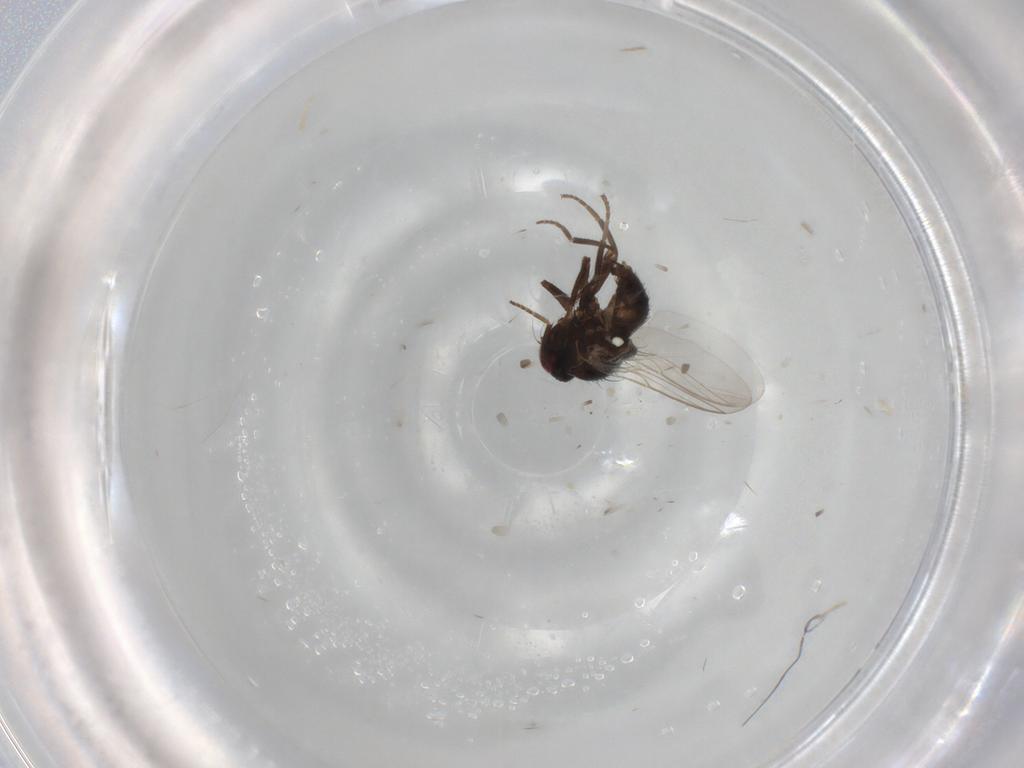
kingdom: Animalia
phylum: Arthropoda
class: Insecta
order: Diptera
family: Agromyzidae
